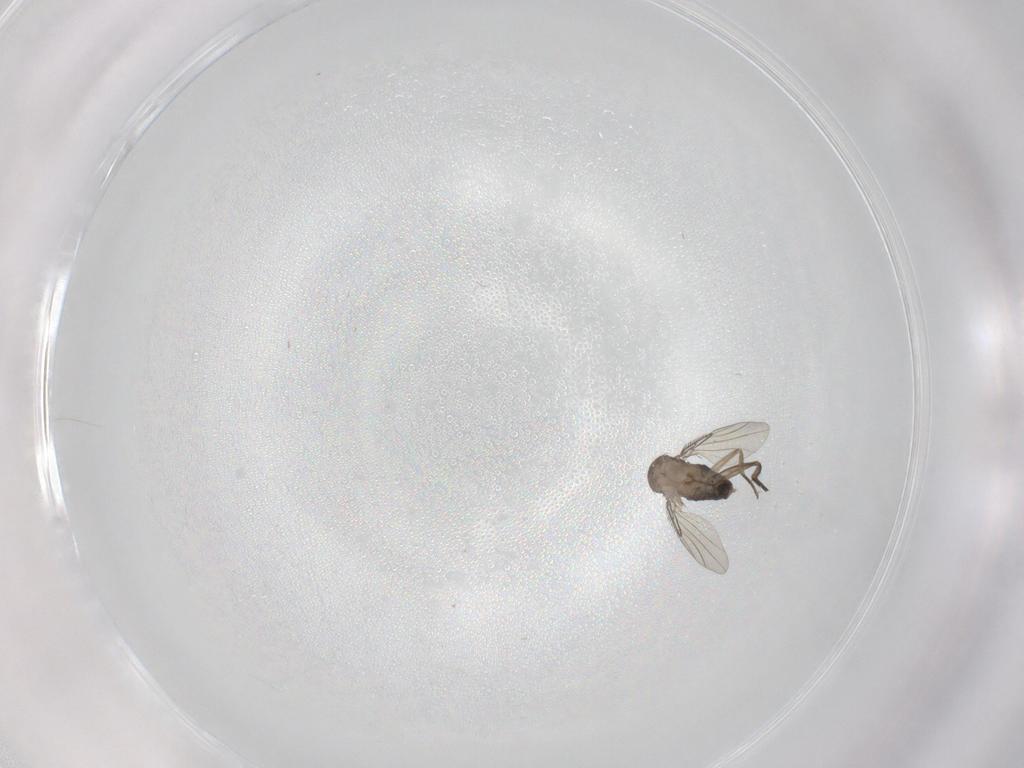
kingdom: Animalia
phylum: Arthropoda
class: Insecta
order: Diptera
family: Phoridae
